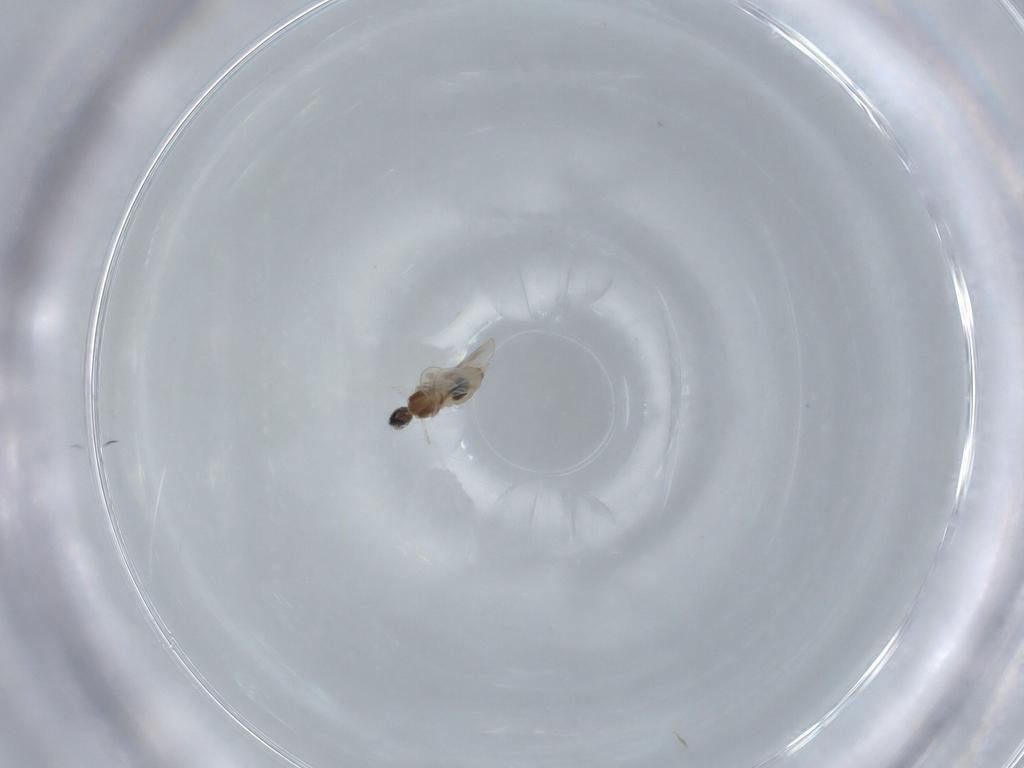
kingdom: Animalia
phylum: Arthropoda
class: Insecta
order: Diptera
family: Cecidomyiidae
